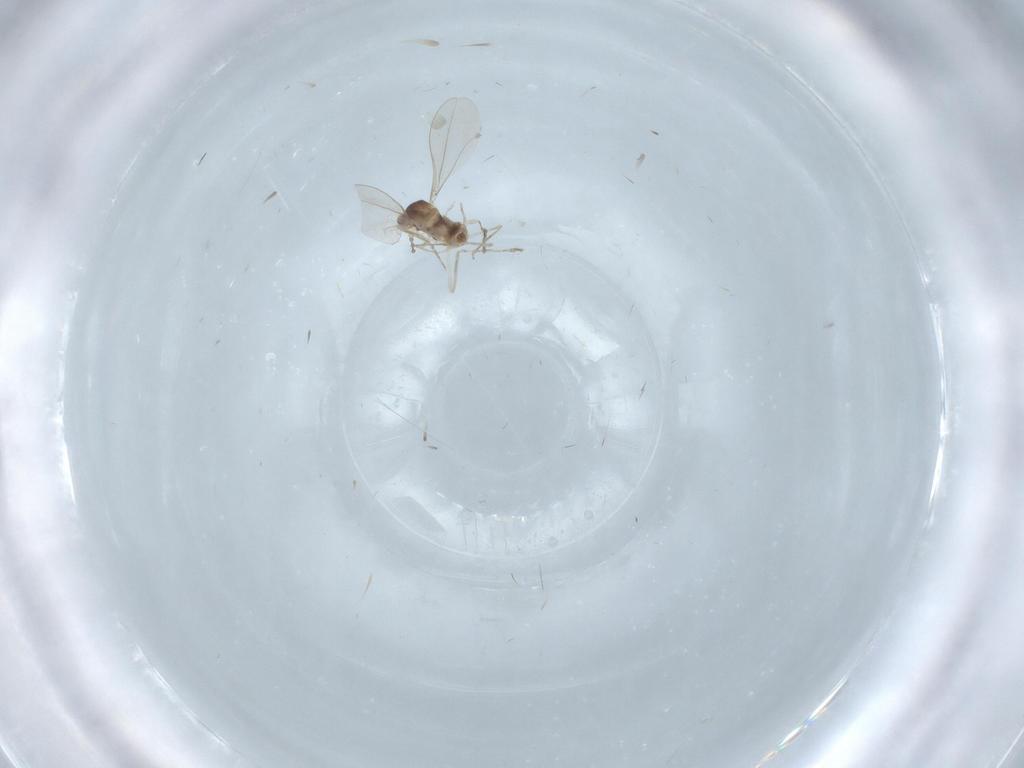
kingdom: Animalia
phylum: Arthropoda
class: Insecta
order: Diptera
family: Cecidomyiidae
